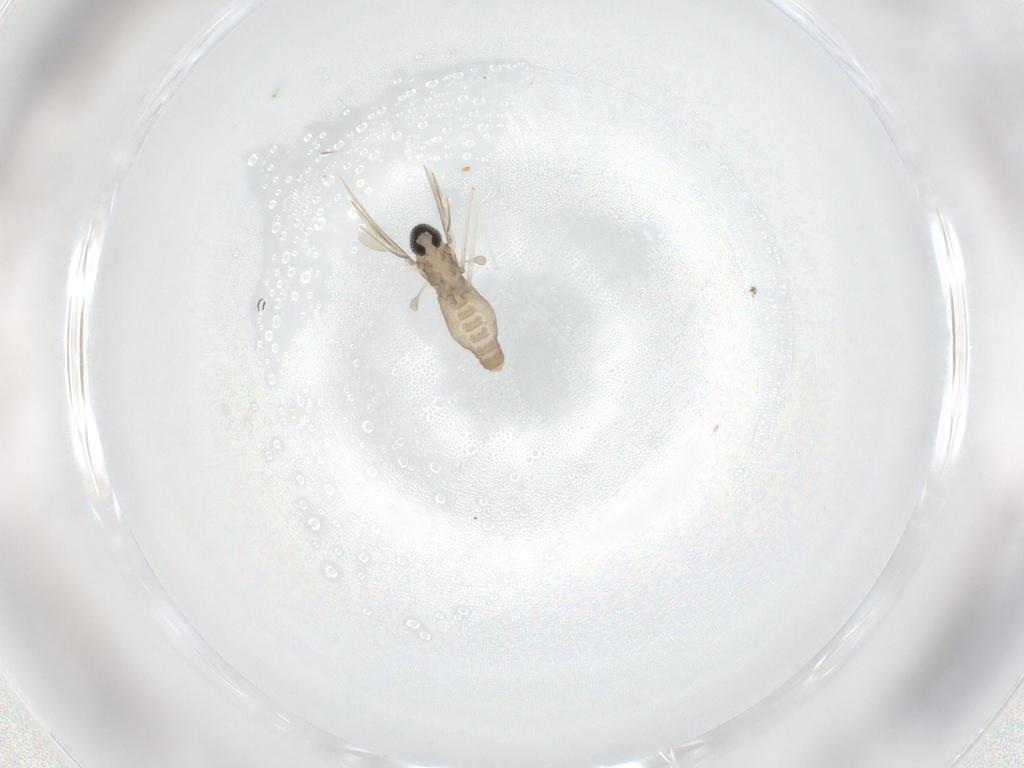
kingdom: Animalia
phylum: Arthropoda
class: Insecta
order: Diptera
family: Cecidomyiidae
